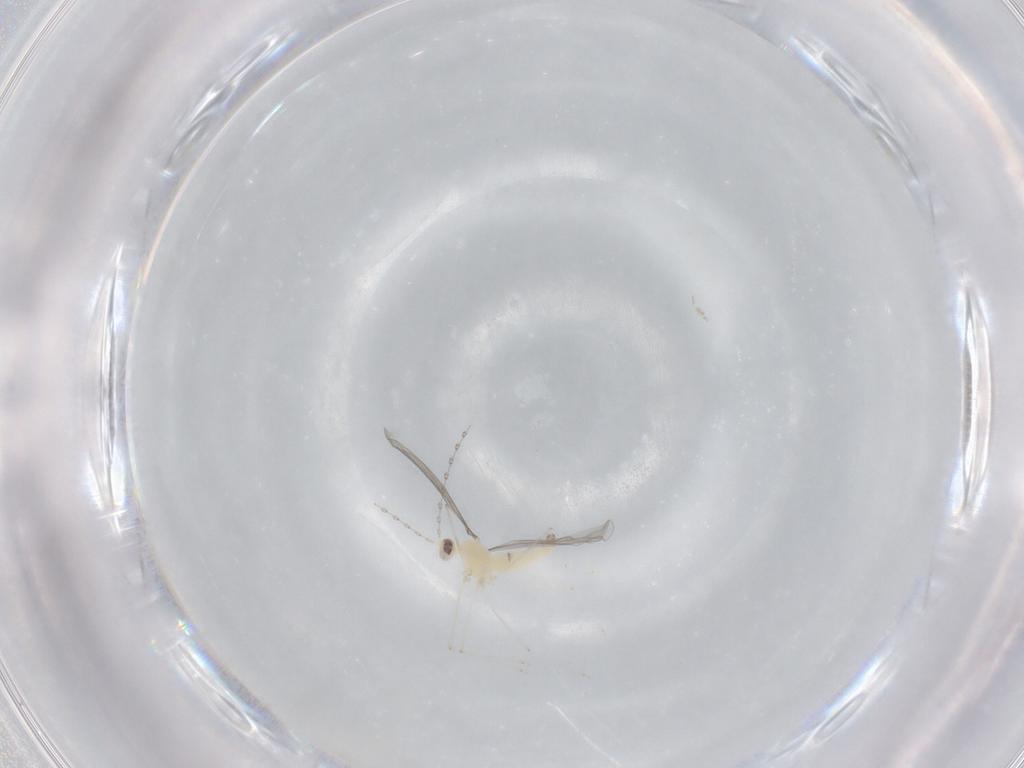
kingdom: Animalia
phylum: Arthropoda
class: Insecta
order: Diptera
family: Cecidomyiidae
